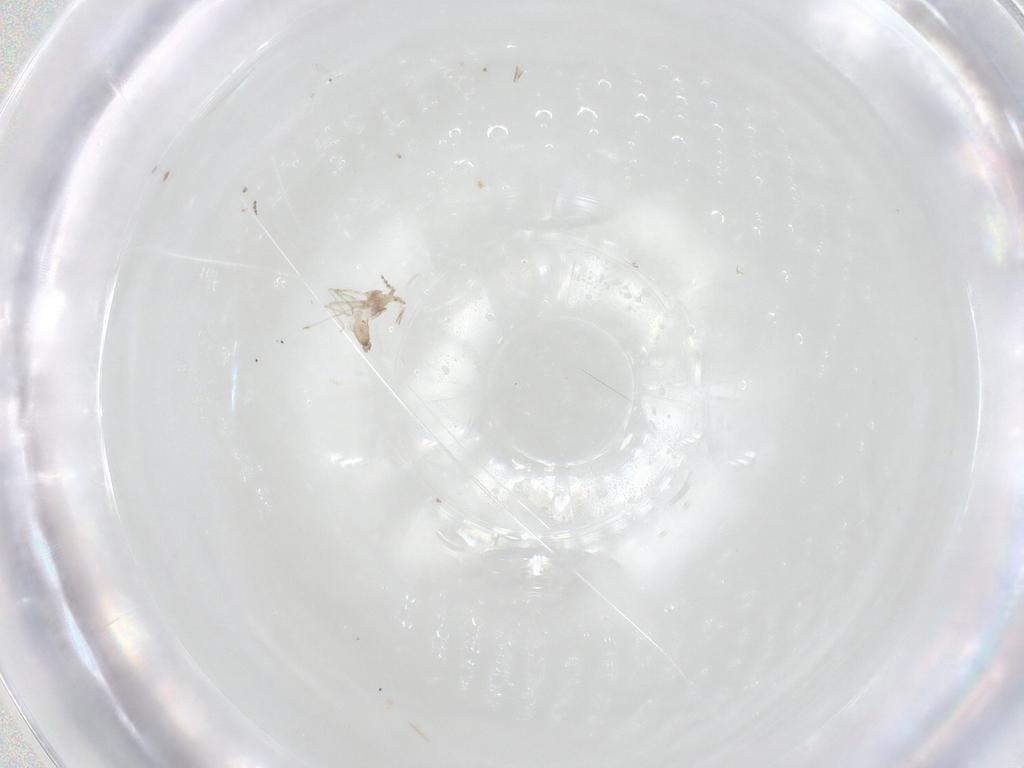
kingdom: Animalia
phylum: Arthropoda
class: Insecta
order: Diptera
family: Cecidomyiidae
